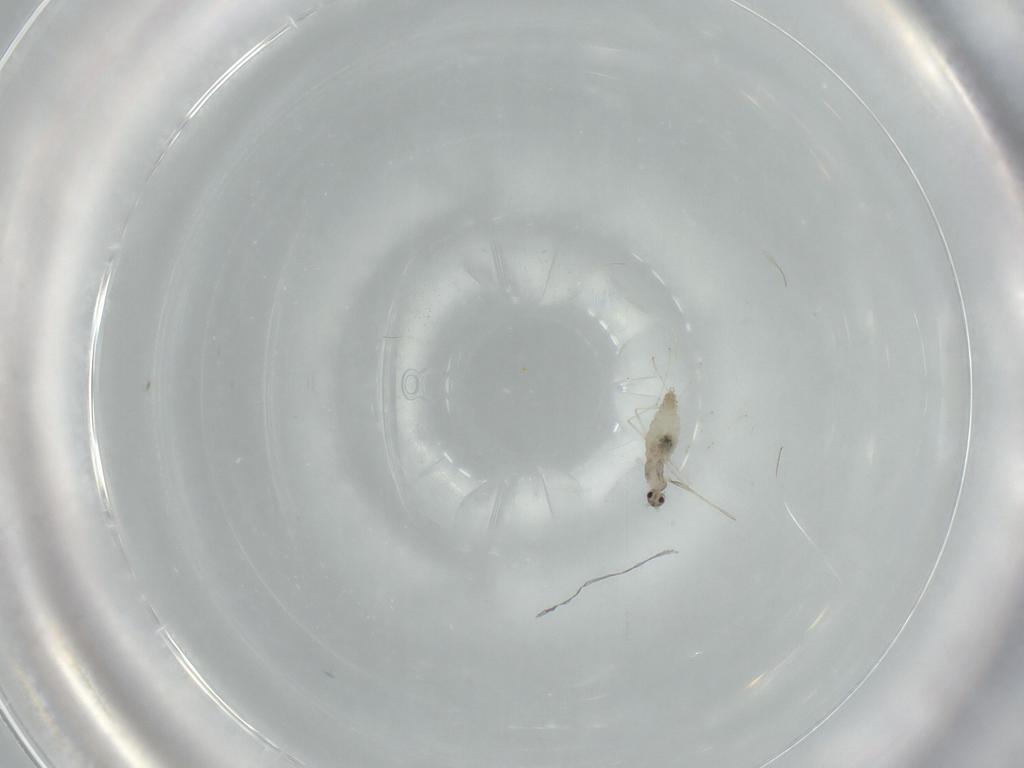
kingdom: Animalia
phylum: Arthropoda
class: Insecta
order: Diptera
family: Cecidomyiidae
